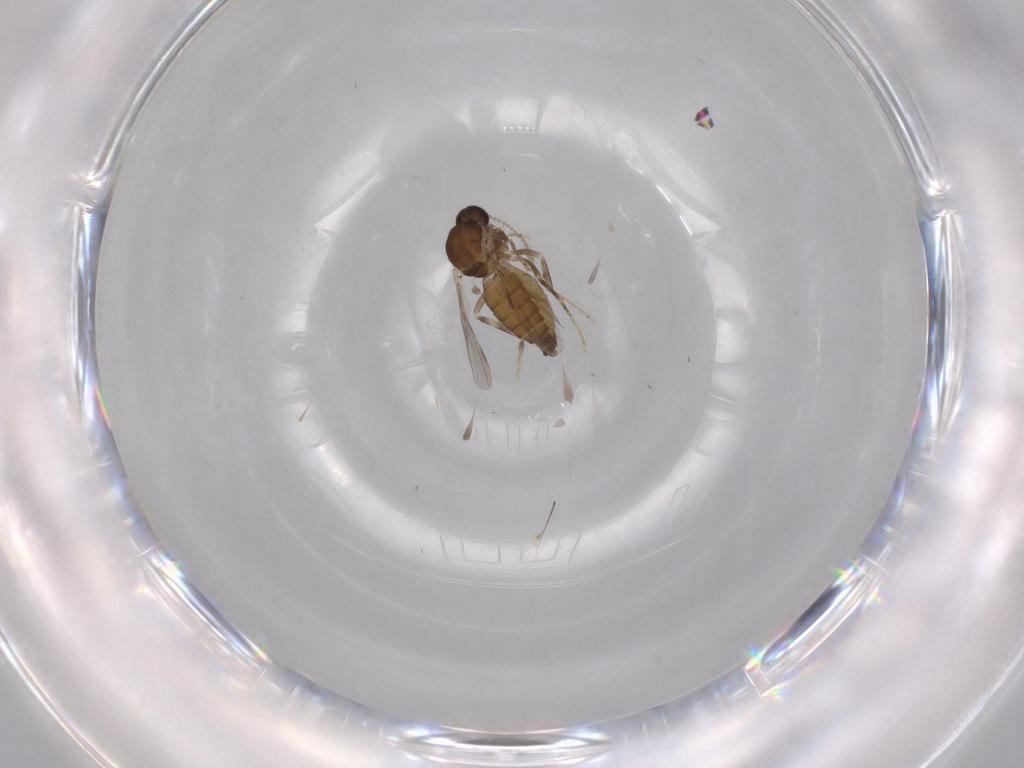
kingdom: Animalia
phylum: Arthropoda
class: Insecta
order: Diptera
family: Ceratopogonidae
